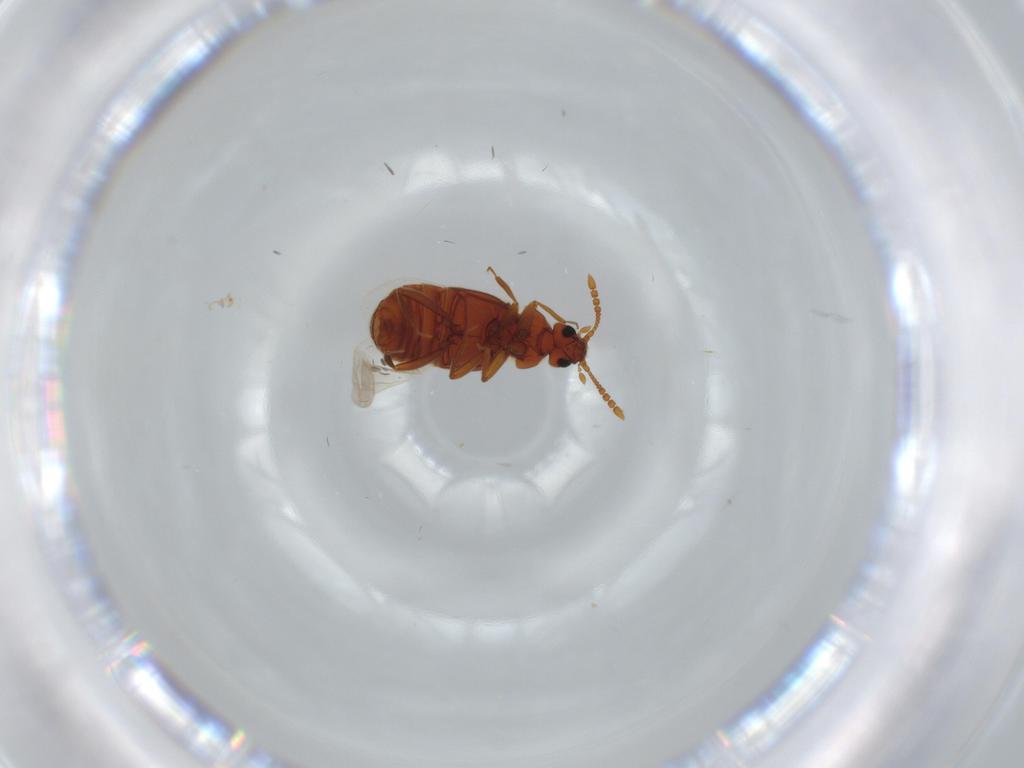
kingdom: Animalia
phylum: Arthropoda
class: Insecta
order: Coleoptera
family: Staphylinidae
